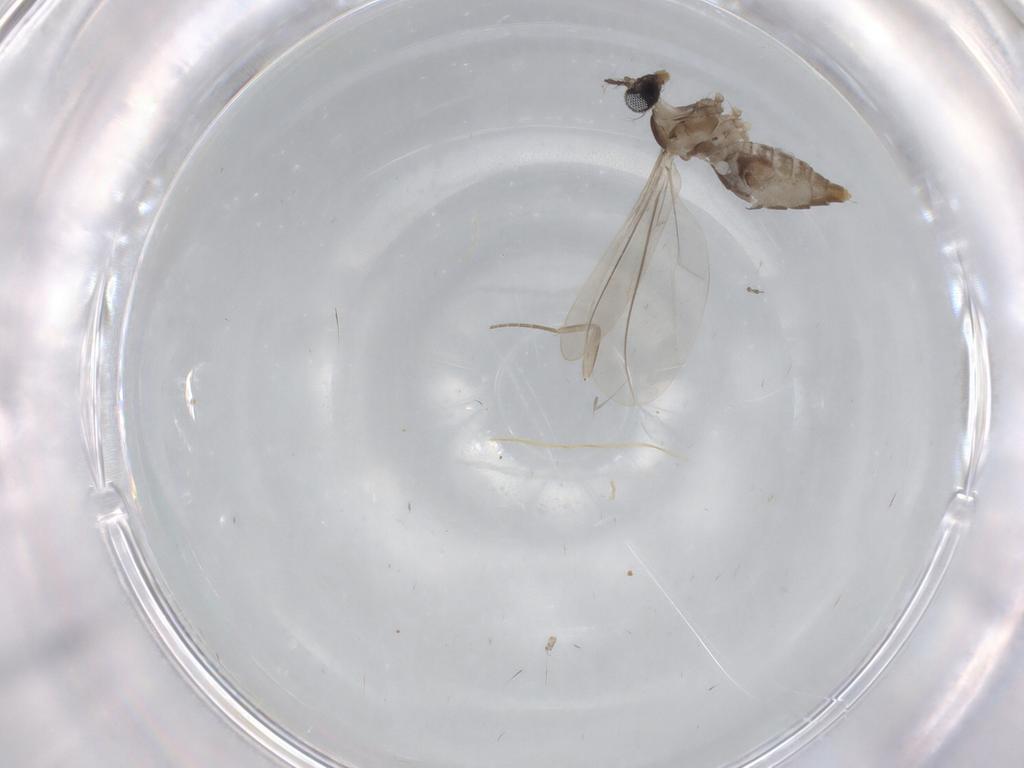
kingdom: Animalia
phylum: Arthropoda
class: Insecta
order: Diptera
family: Cecidomyiidae
